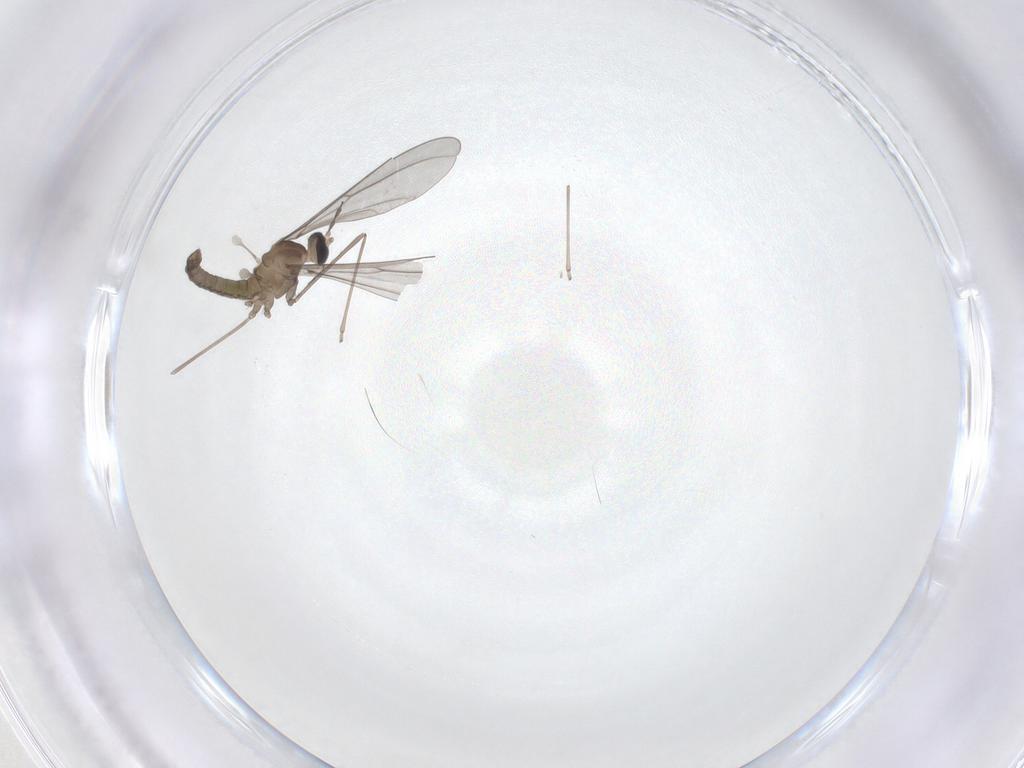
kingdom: Animalia
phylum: Arthropoda
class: Insecta
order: Diptera
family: Cecidomyiidae
